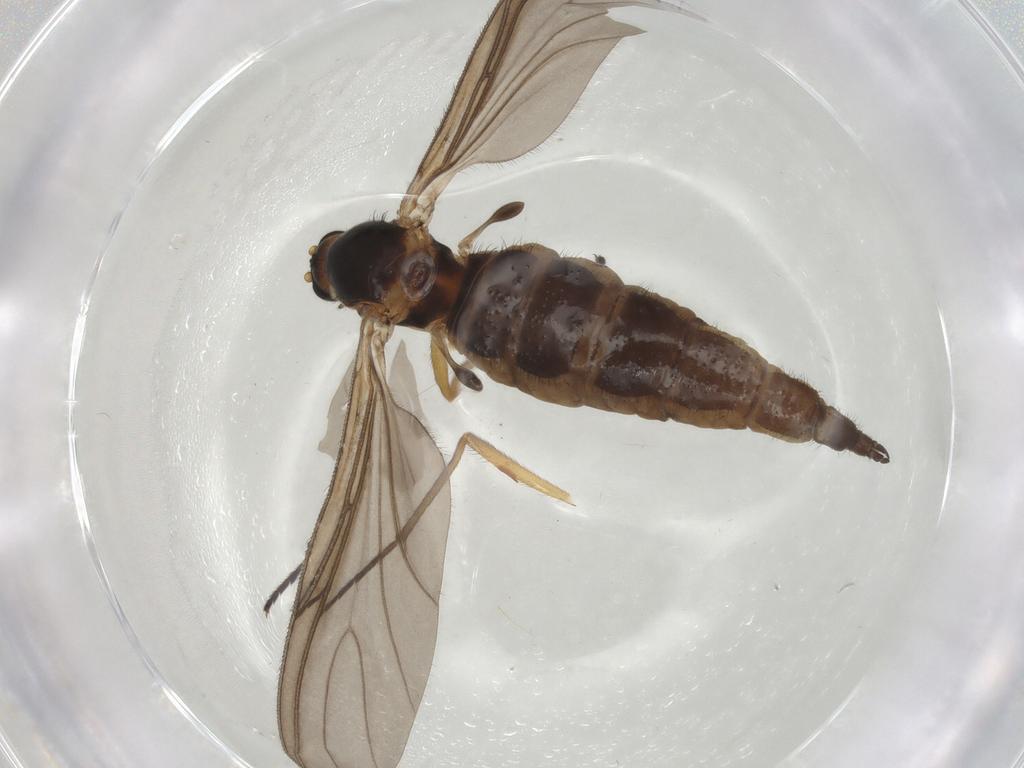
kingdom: Animalia
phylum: Arthropoda
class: Insecta
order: Diptera
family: Sciaridae
